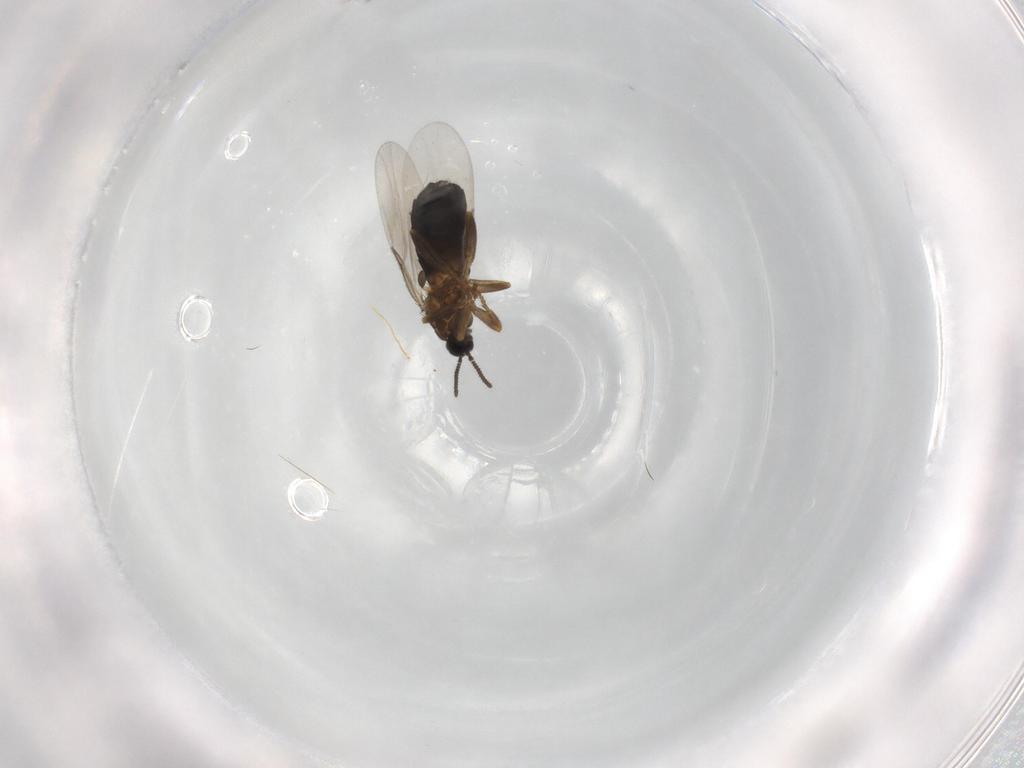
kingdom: Animalia
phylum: Arthropoda
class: Insecta
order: Diptera
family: Scatopsidae
